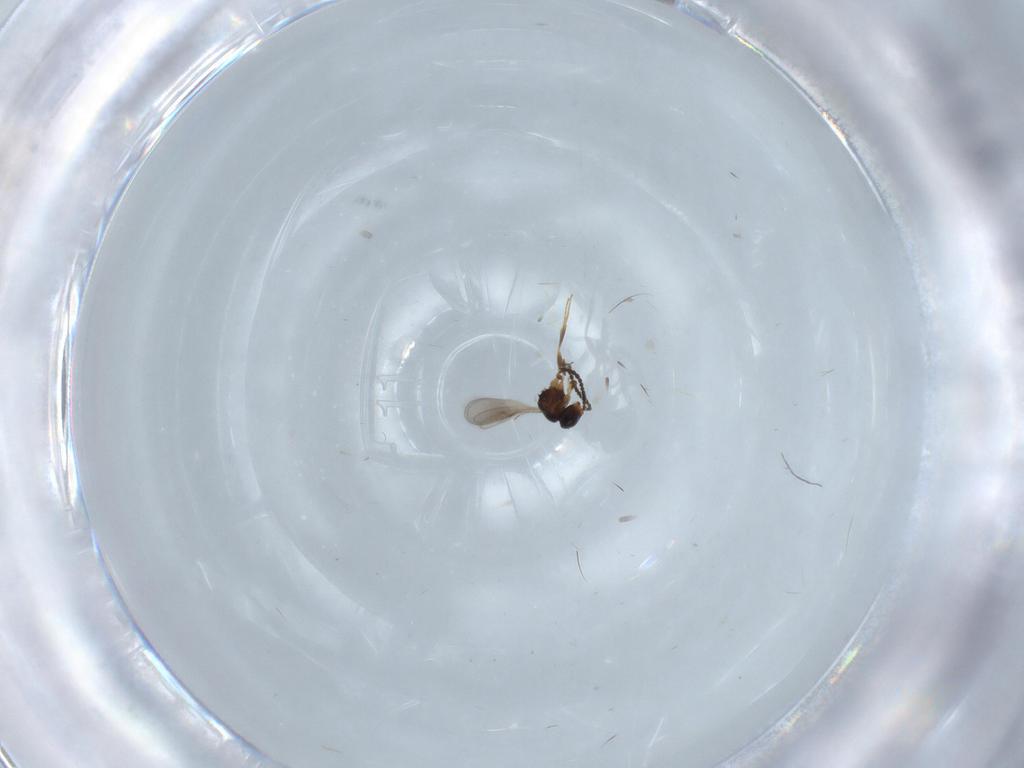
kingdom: Animalia
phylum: Arthropoda
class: Insecta
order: Hymenoptera
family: Scelionidae
